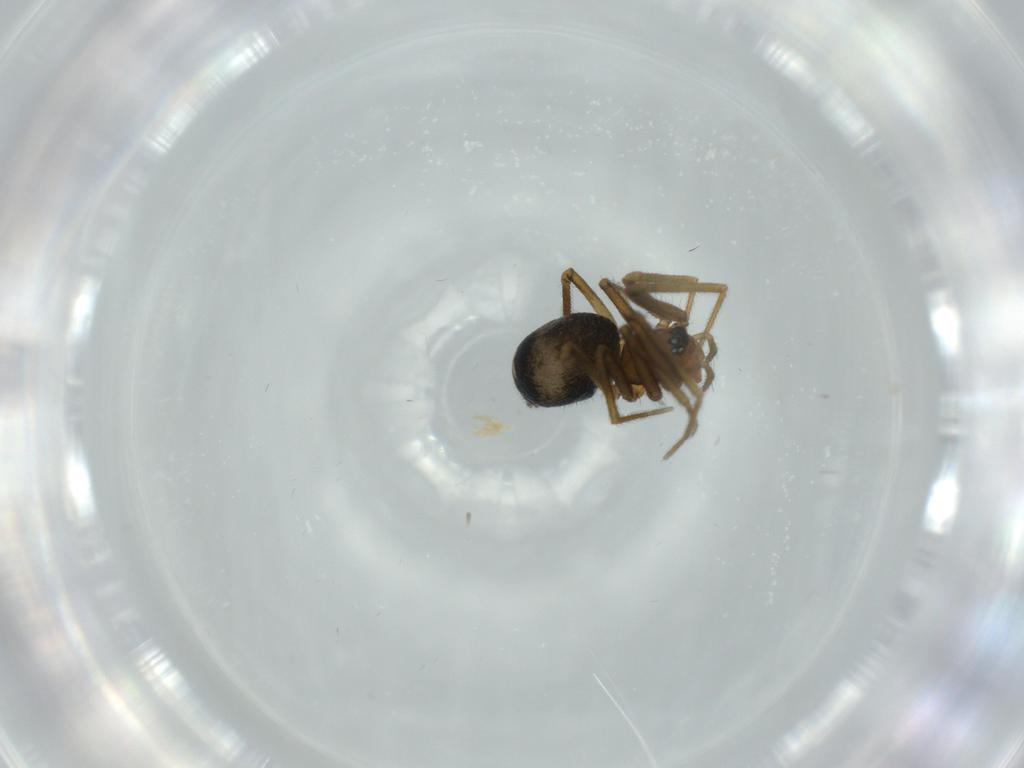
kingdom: Animalia
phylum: Arthropoda
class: Arachnida
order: Araneae
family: Linyphiidae
